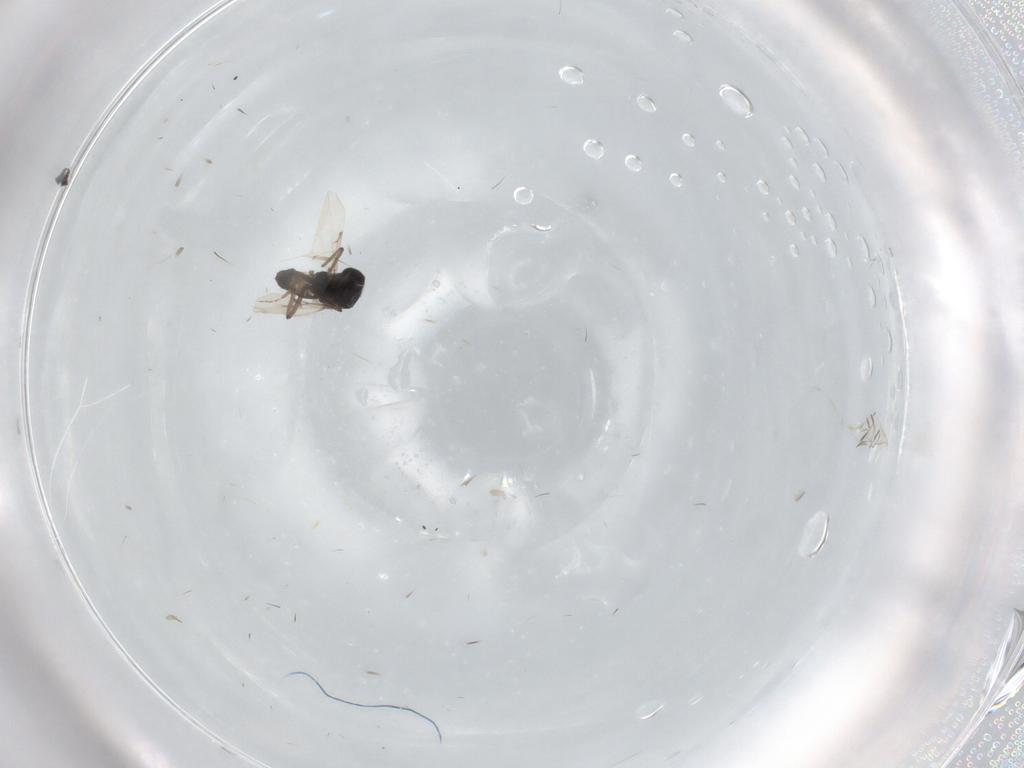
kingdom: Animalia
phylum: Arthropoda
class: Insecta
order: Diptera
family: Ceratopogonidae
